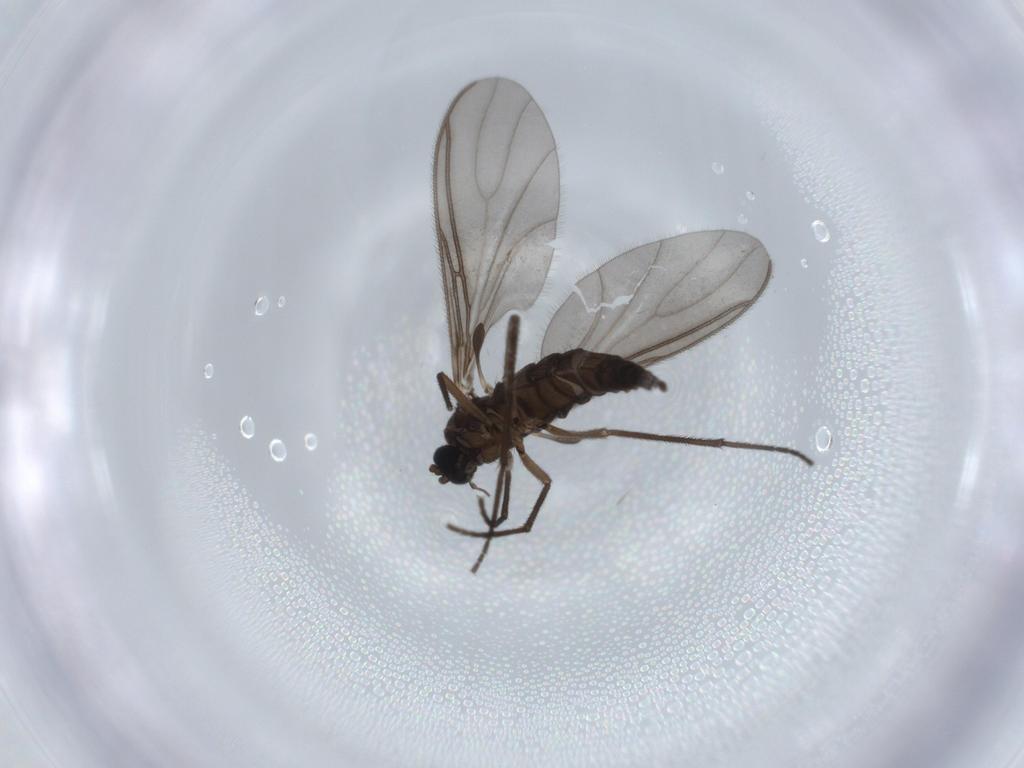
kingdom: Animalia
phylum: Arthropoda
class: Insecta
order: Diptera
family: Sciaridae
